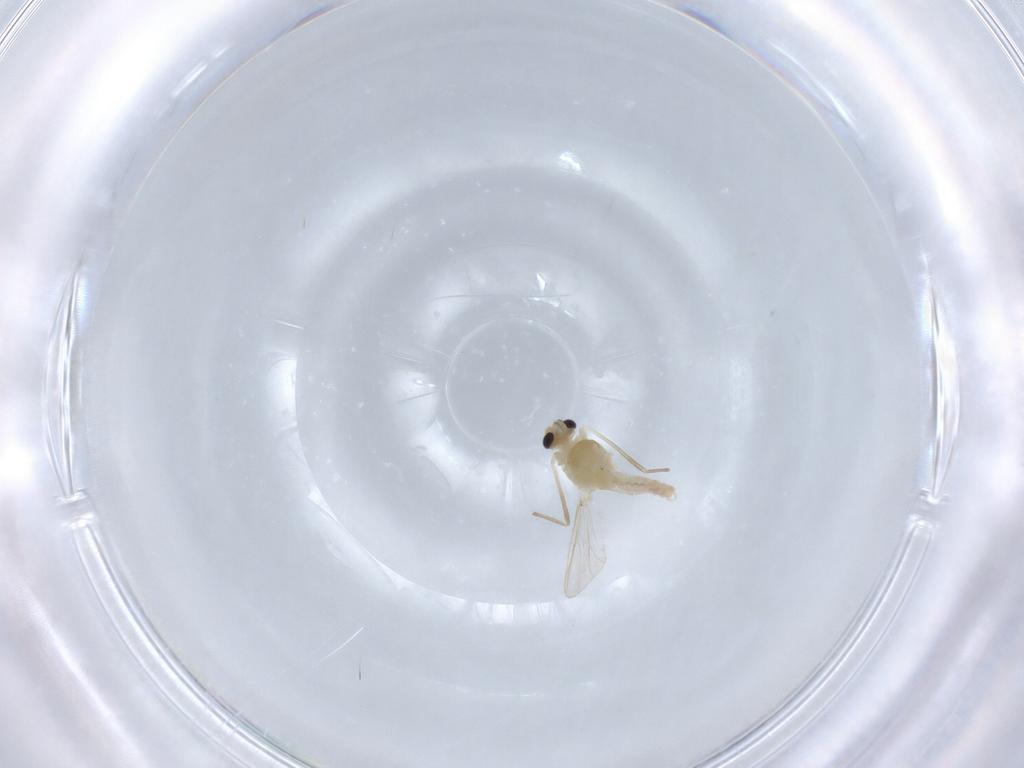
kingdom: Animalia
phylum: Arthropoda
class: Insecta
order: Diptera
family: Chironomidae
